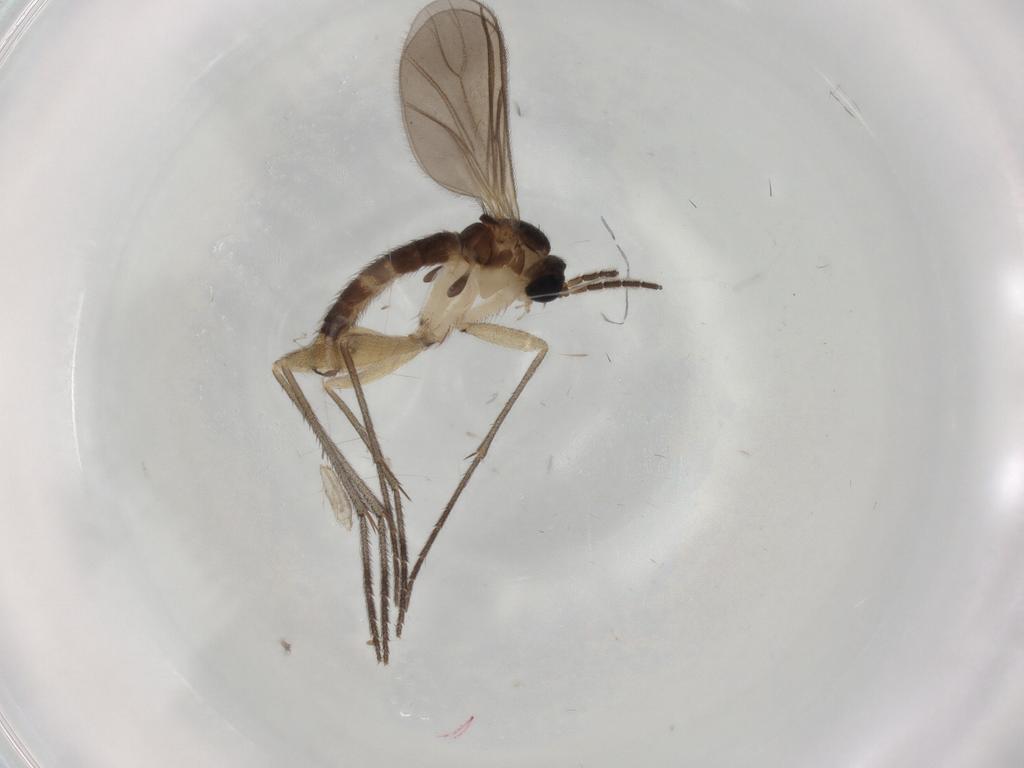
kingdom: Animalia
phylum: Arthropoda
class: Insecta
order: Diptera
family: Sciaridae
